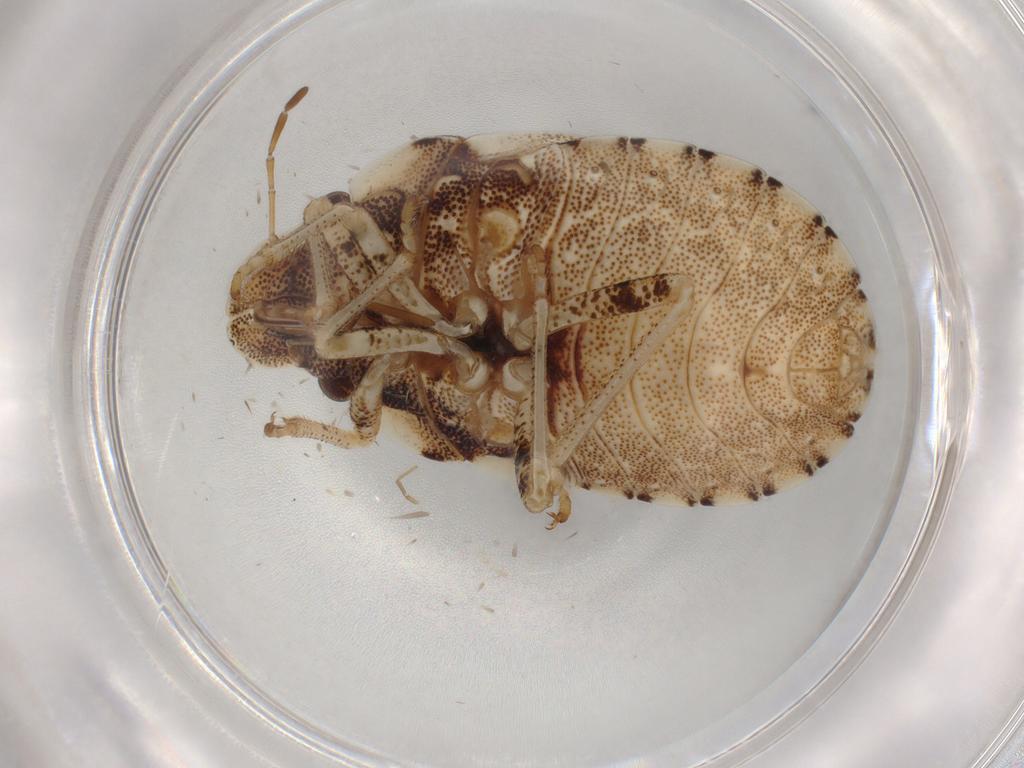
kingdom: Animalia
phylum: Arthropoda
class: Insecta
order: Hemiptera
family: Pentatomidae
